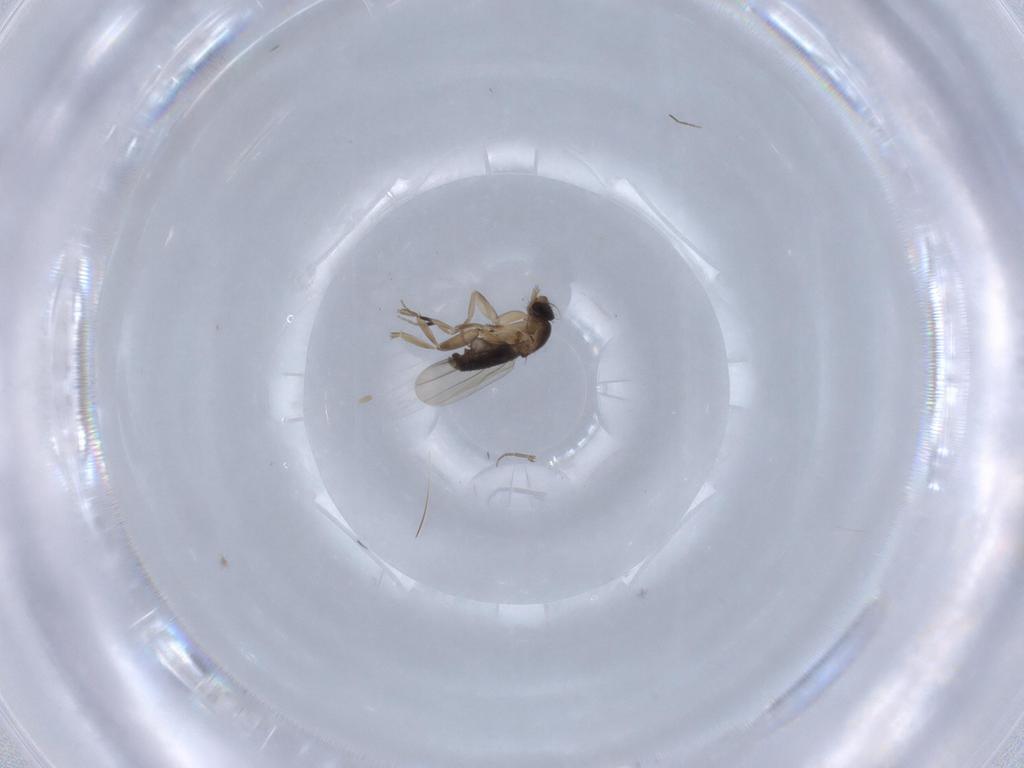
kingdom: Animalia
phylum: Arthropoda
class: Insecta
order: Diptera
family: Phoridae
